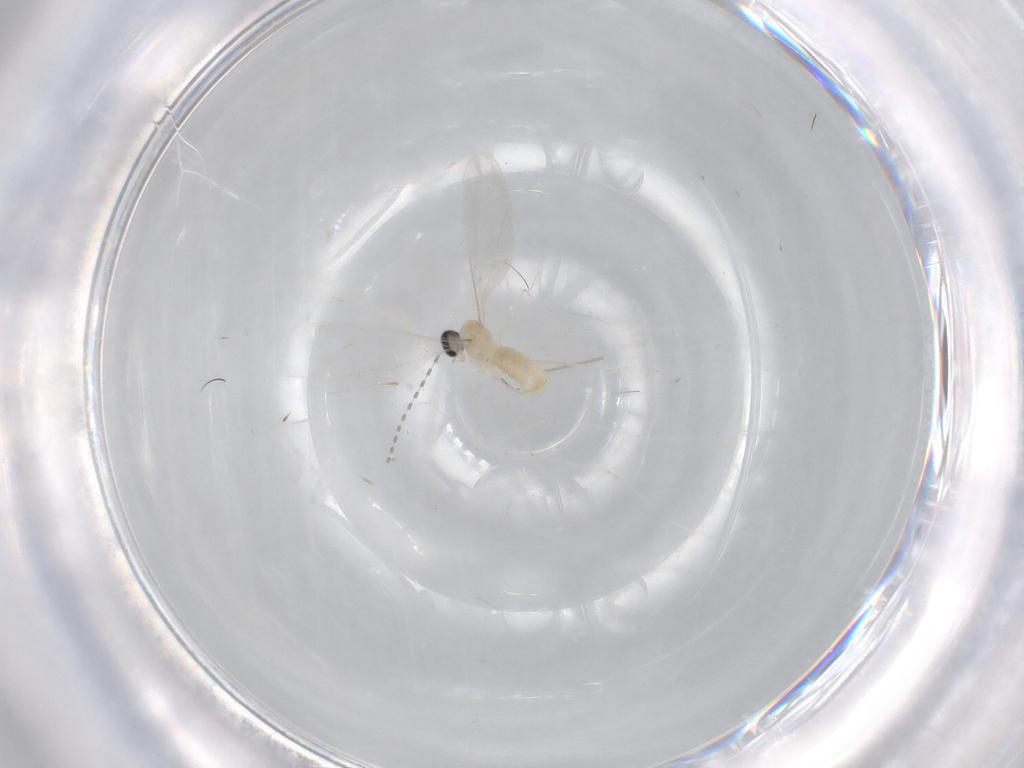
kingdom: Animalia
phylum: Arthropoda
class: Insecta
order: Diptera
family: Cecidomyiidae
